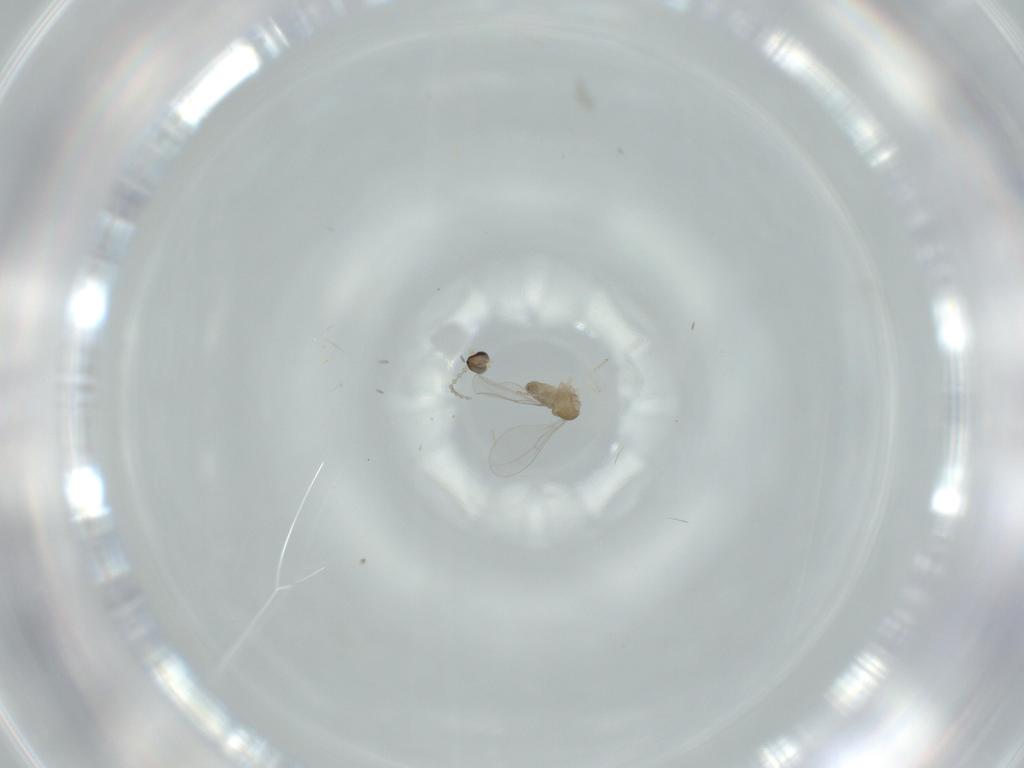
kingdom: Animalia
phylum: Arthropoda
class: Insecta
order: Diptera
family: Cecidomyiidae
